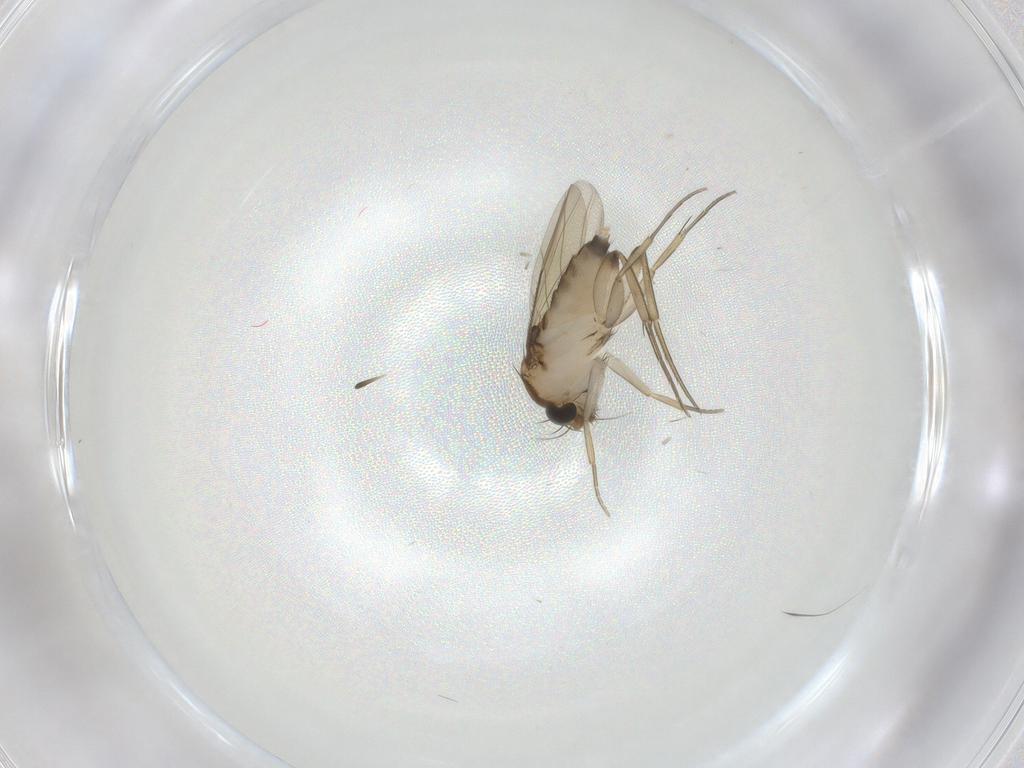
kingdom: Animalia
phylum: Arthropoda
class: Insecta
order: Diptera
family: Phoridae
